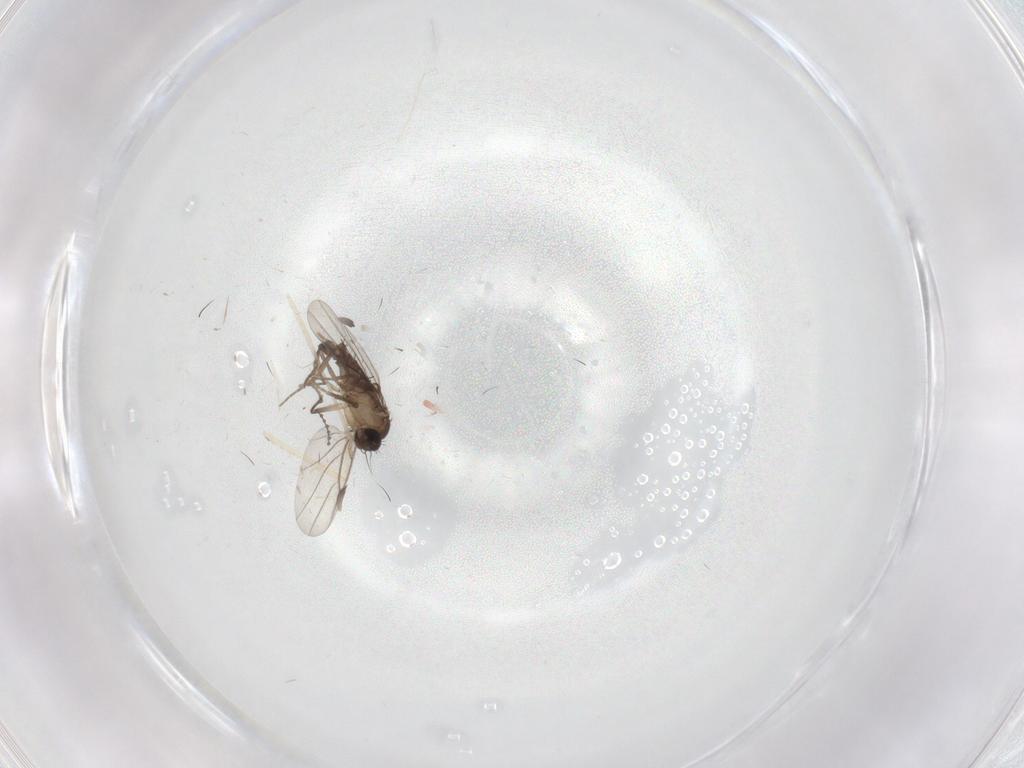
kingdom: Animalia
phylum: Arthropoda
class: Insecta
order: Diptera
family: Cecidomyiidae
